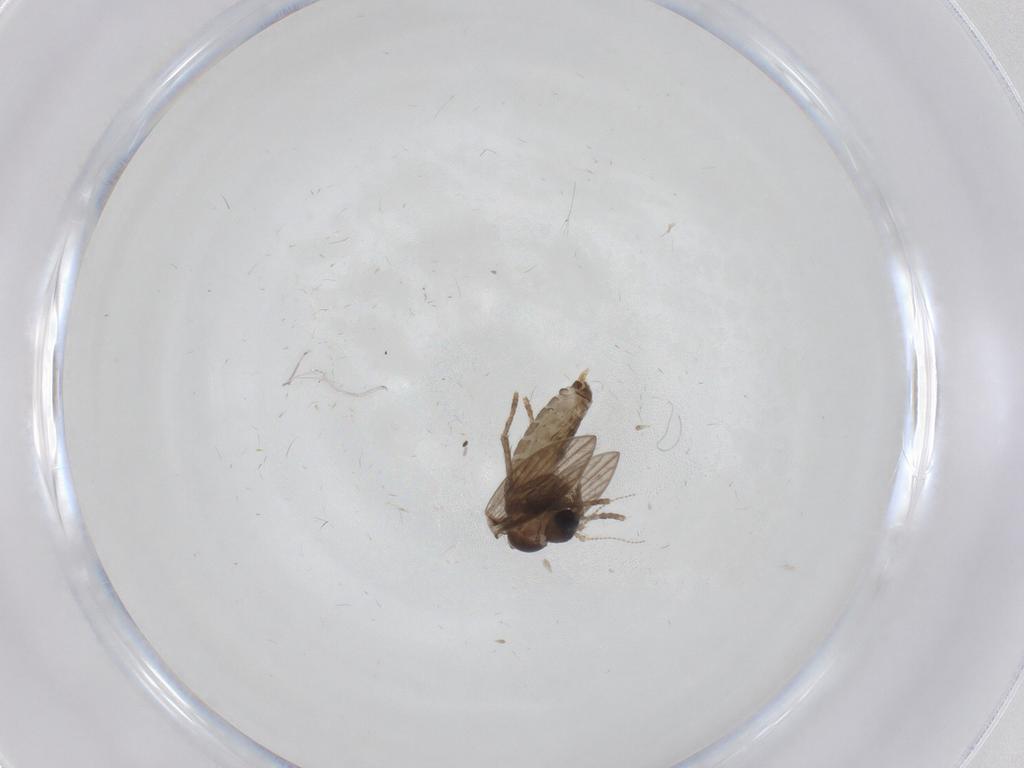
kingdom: Animalia
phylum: Arthropoda
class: Insecta
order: Diptera
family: Psychodidae
